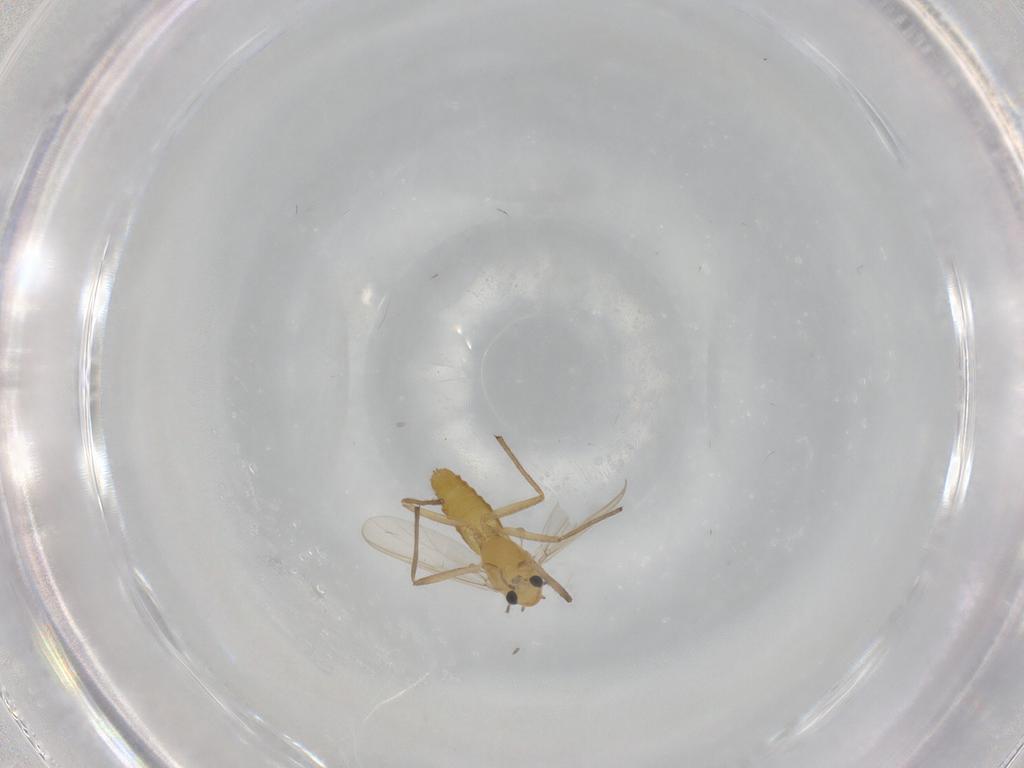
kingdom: Animalia
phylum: Arthropoda
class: Insecta
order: Diptera
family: Chironomidae
